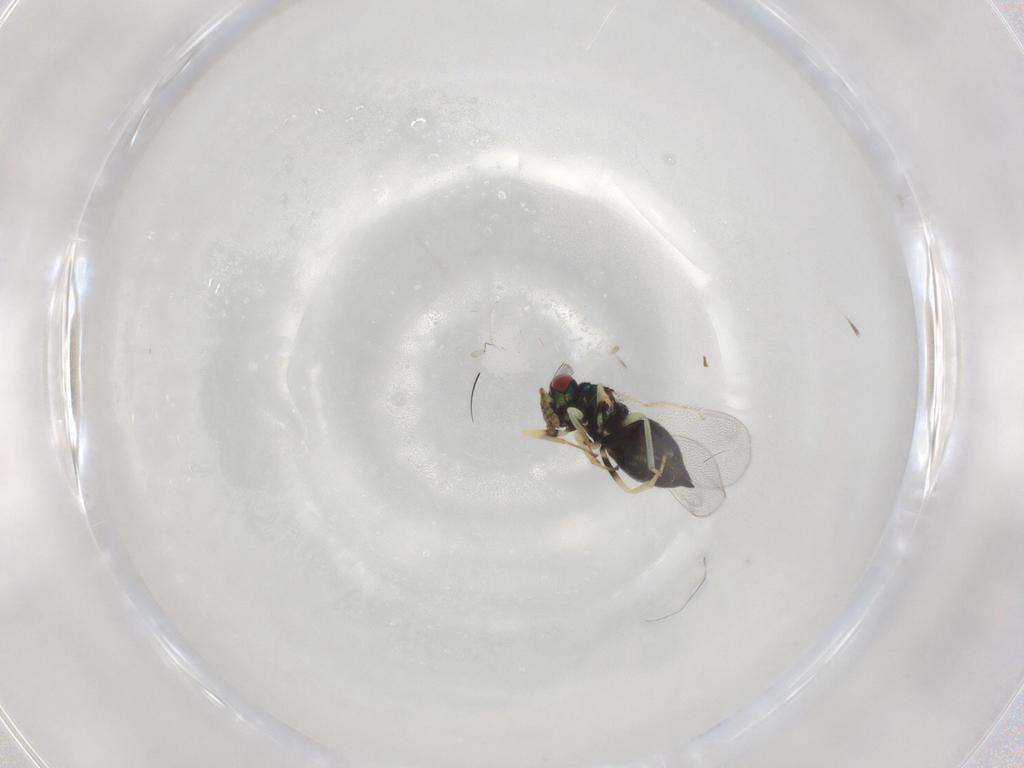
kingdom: Animalia
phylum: Arthropoda
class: Insecta
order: Hymenoptera
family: Eulophidae
